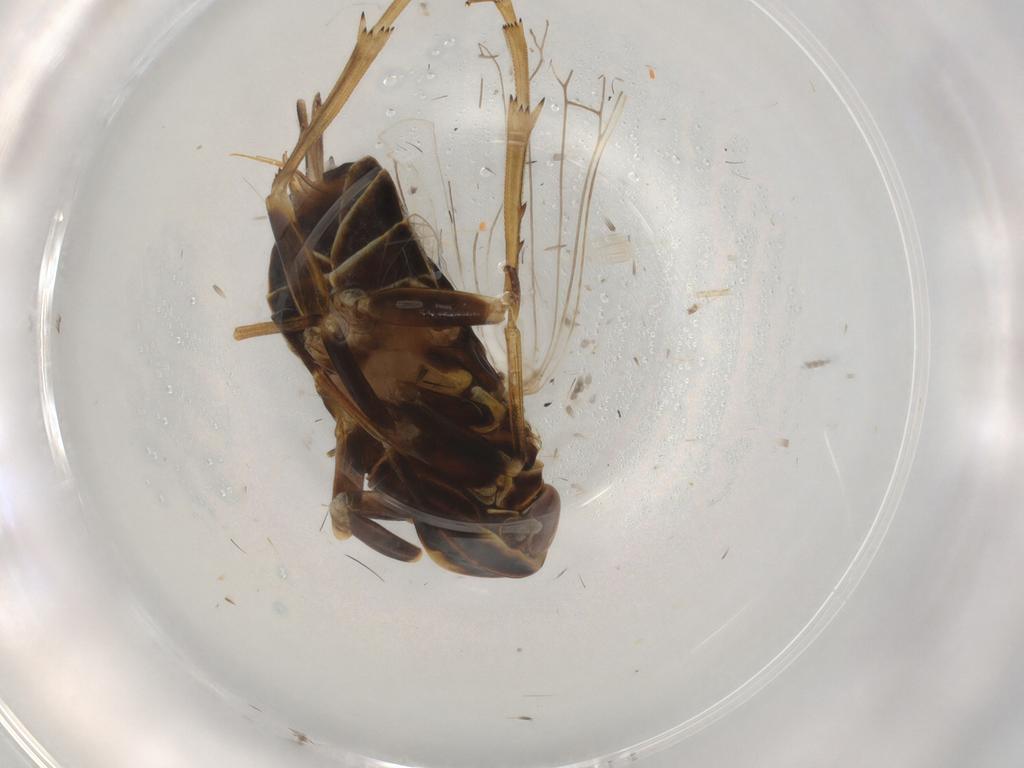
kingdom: Animalia
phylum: Arthropoda
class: Insecta
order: Hemiptera
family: Cixiidae
